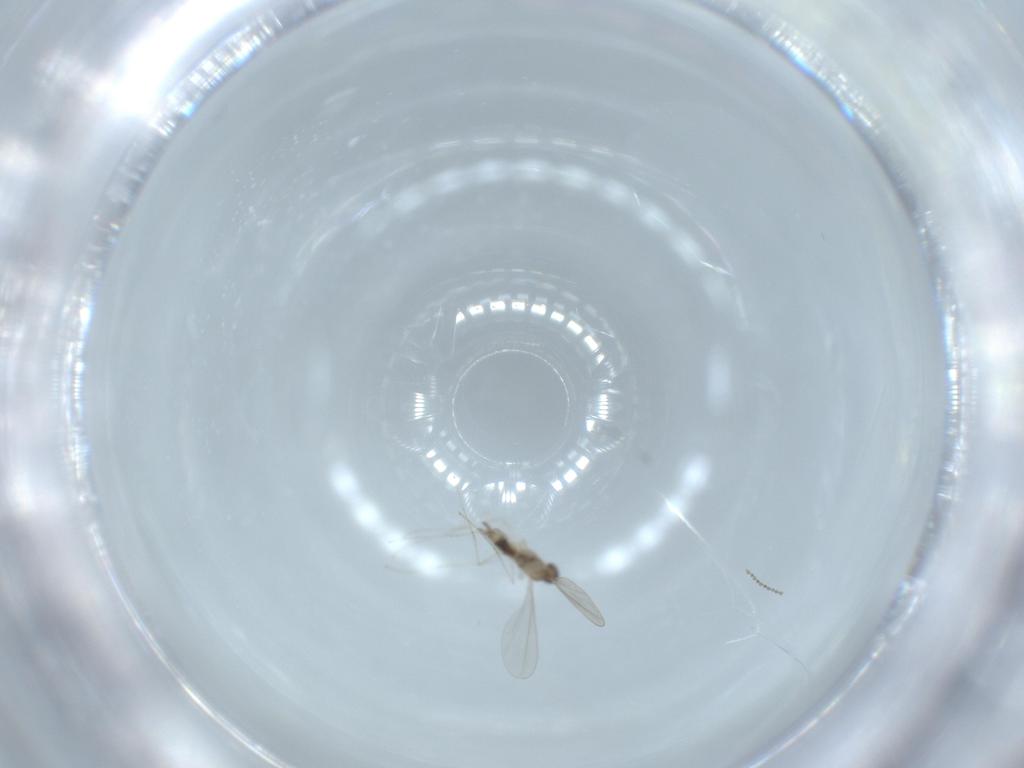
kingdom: Animalia
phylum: Arthropoda
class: Insecta
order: Diptera
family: Cecidomyiidae
